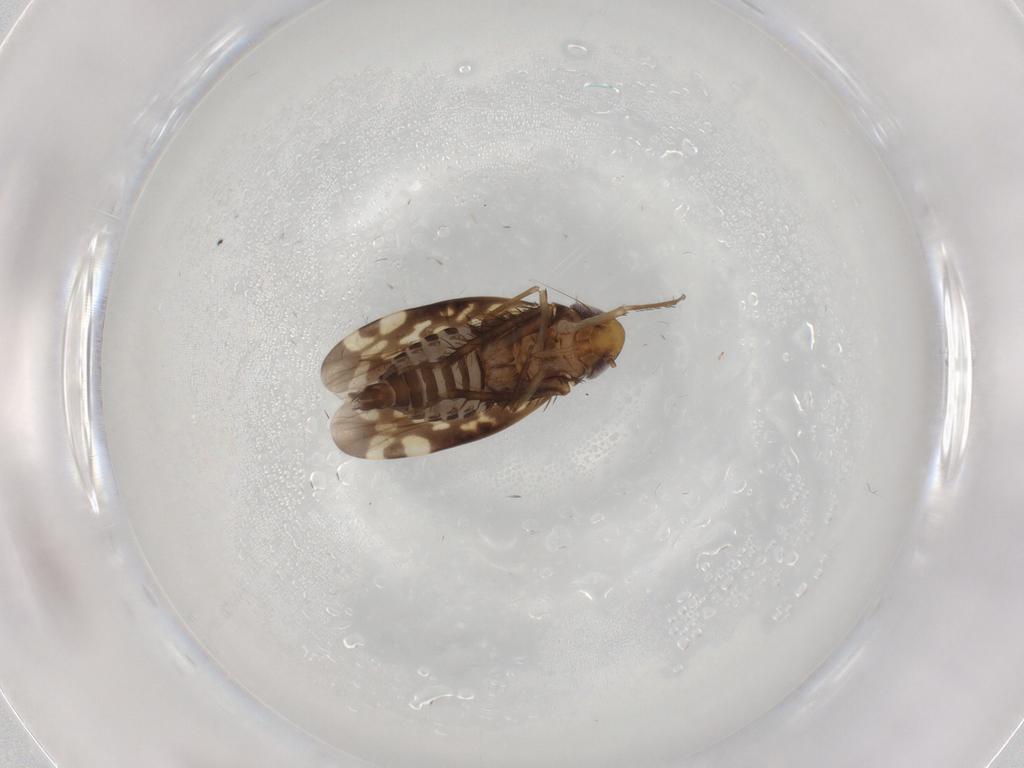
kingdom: Animalia
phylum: Arthropoda
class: Insecta
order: Hemiptera
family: Cicadellidae
